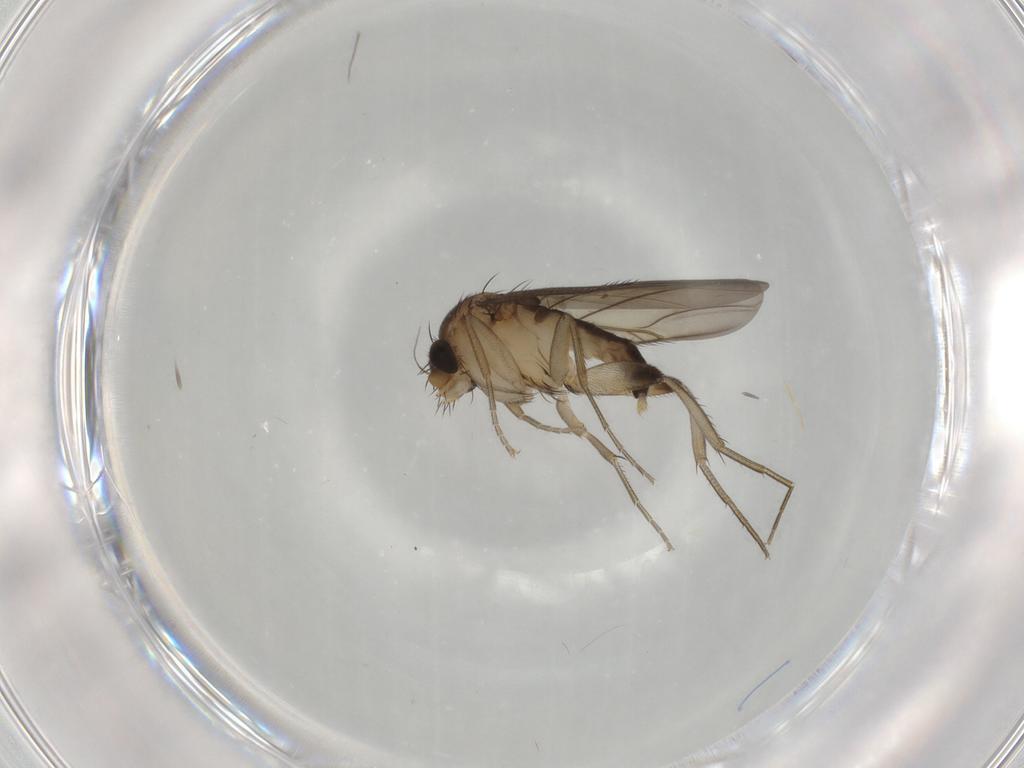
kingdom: Animalia
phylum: Arthropoda
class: Insecta
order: Diptera
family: Phoridae
